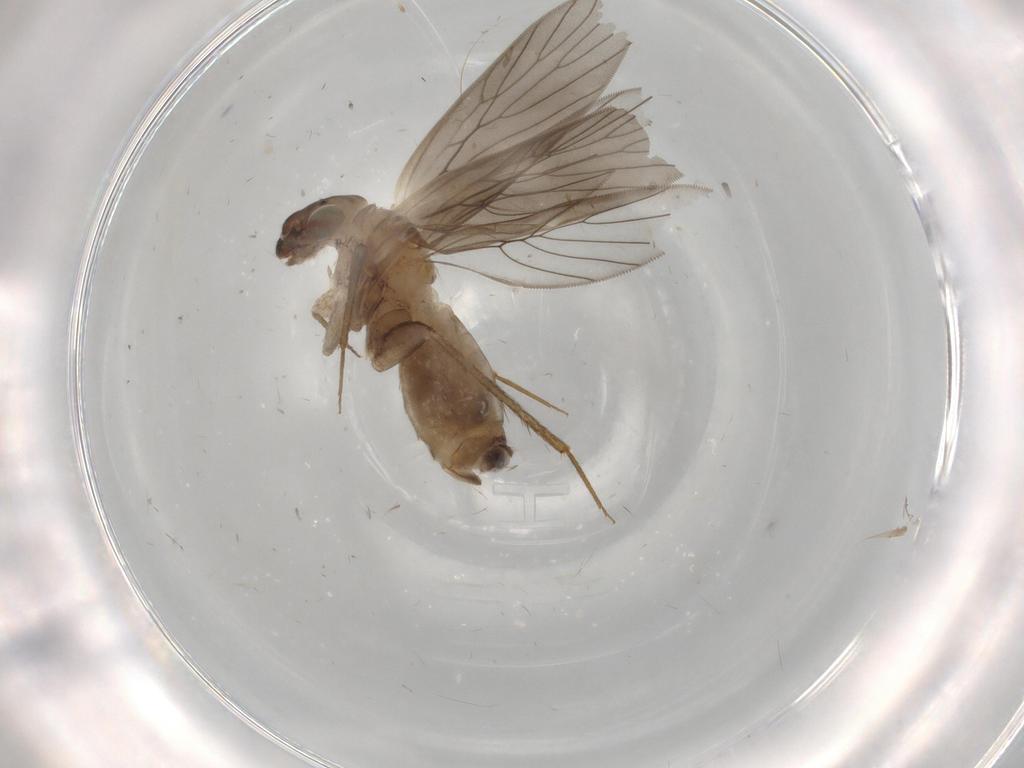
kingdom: Animalia
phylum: Arthropoda
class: Insecta
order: Psocodea
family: Lepidopsocidae
